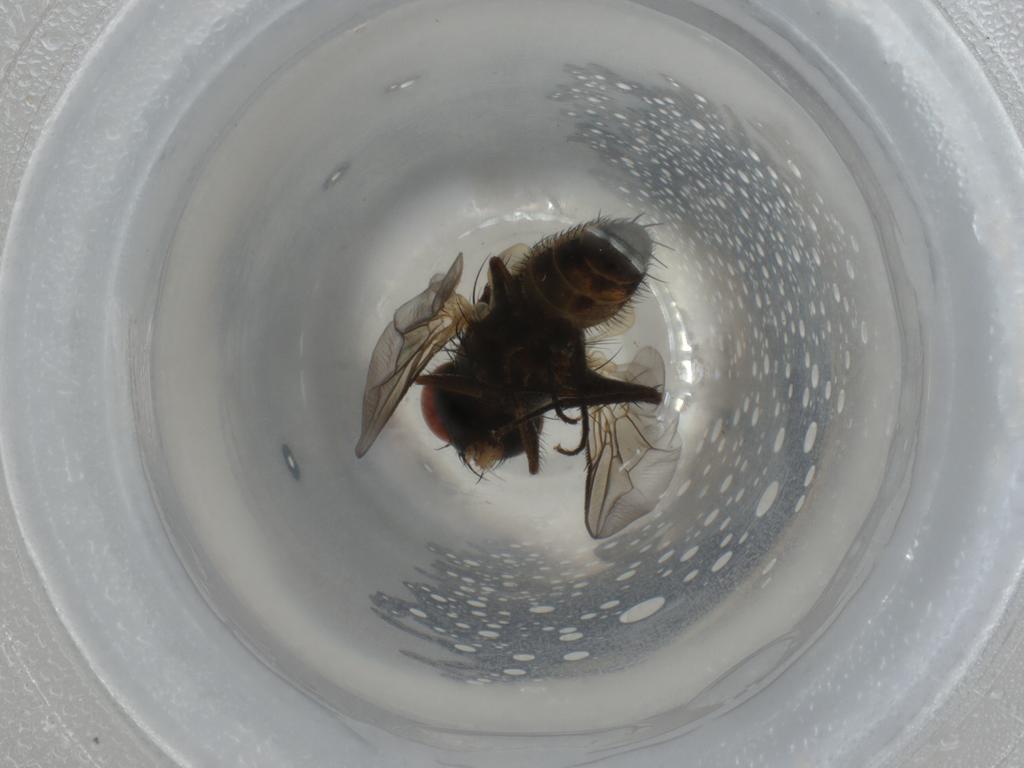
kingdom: Animalia
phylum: Arthropoda
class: Insecta
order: Diptera
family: Sarcophagidae
